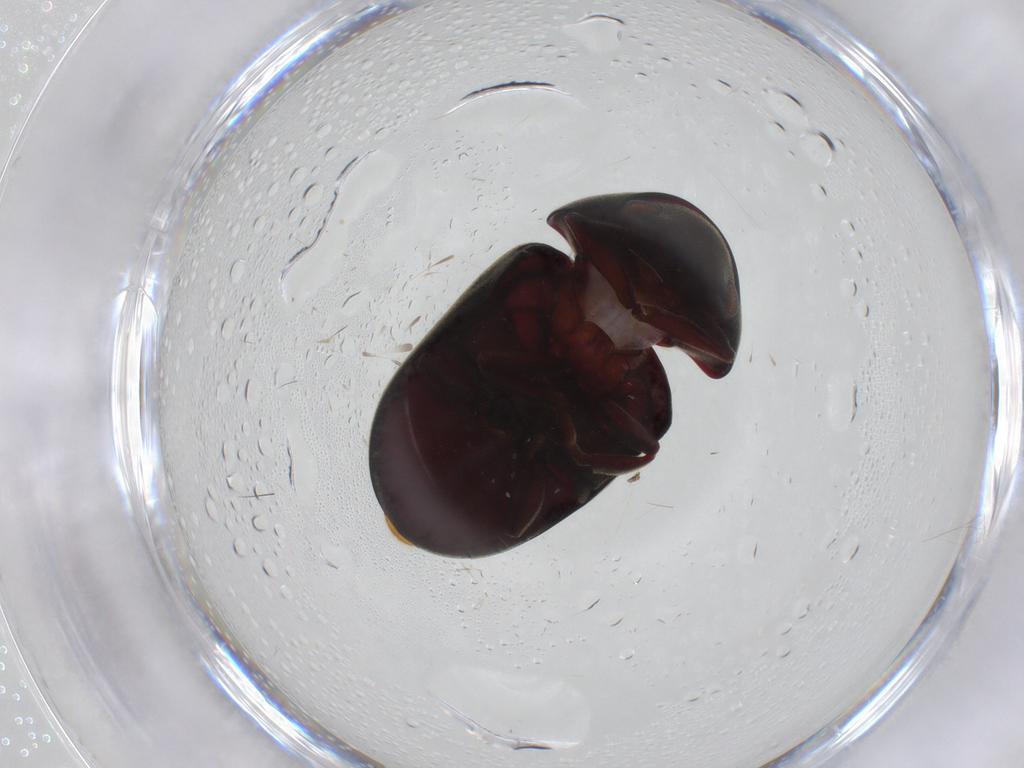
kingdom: Animalia
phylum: Arthropoda
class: Insecta
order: Coleoptera
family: Ptinidae
